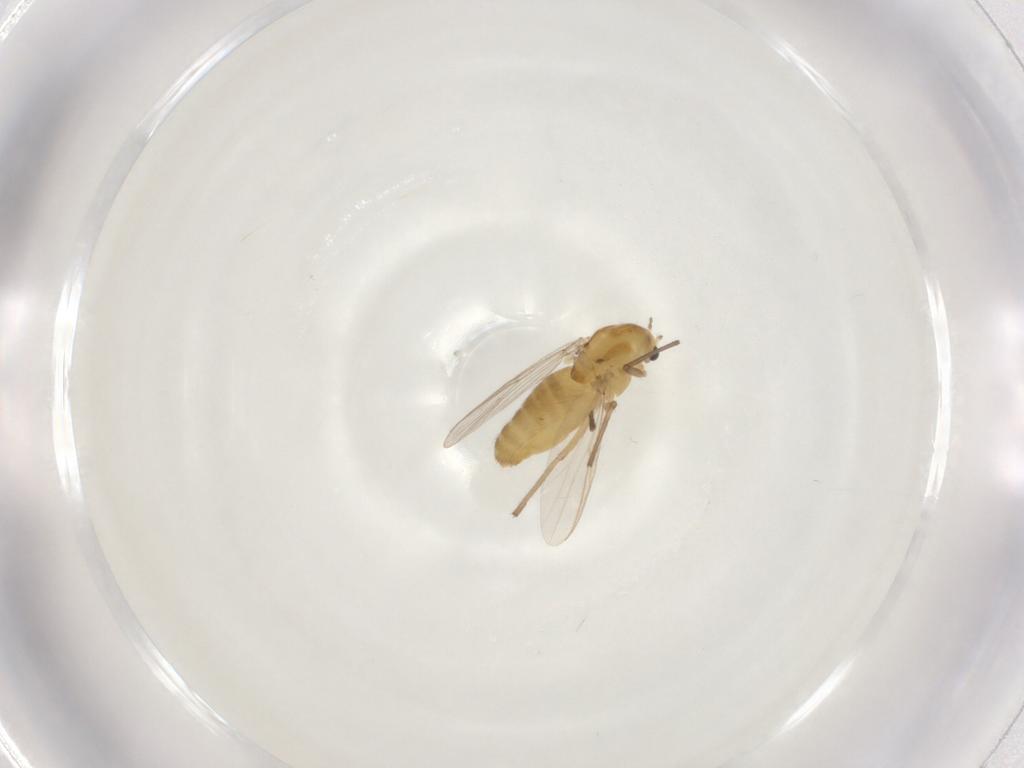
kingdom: Animalia
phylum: Arthropoda
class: Insecta
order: Diptera
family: Chironomidae
